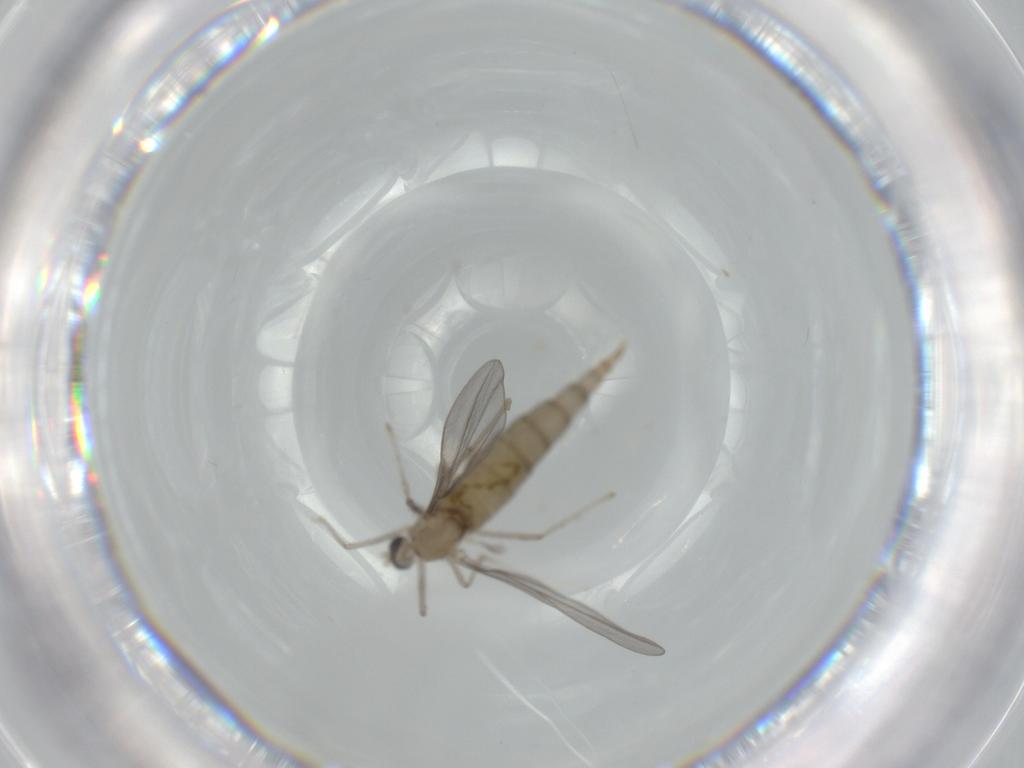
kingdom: Animalia
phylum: Arthropoda
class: Insecta
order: Diptera
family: Cecidomyiidae
